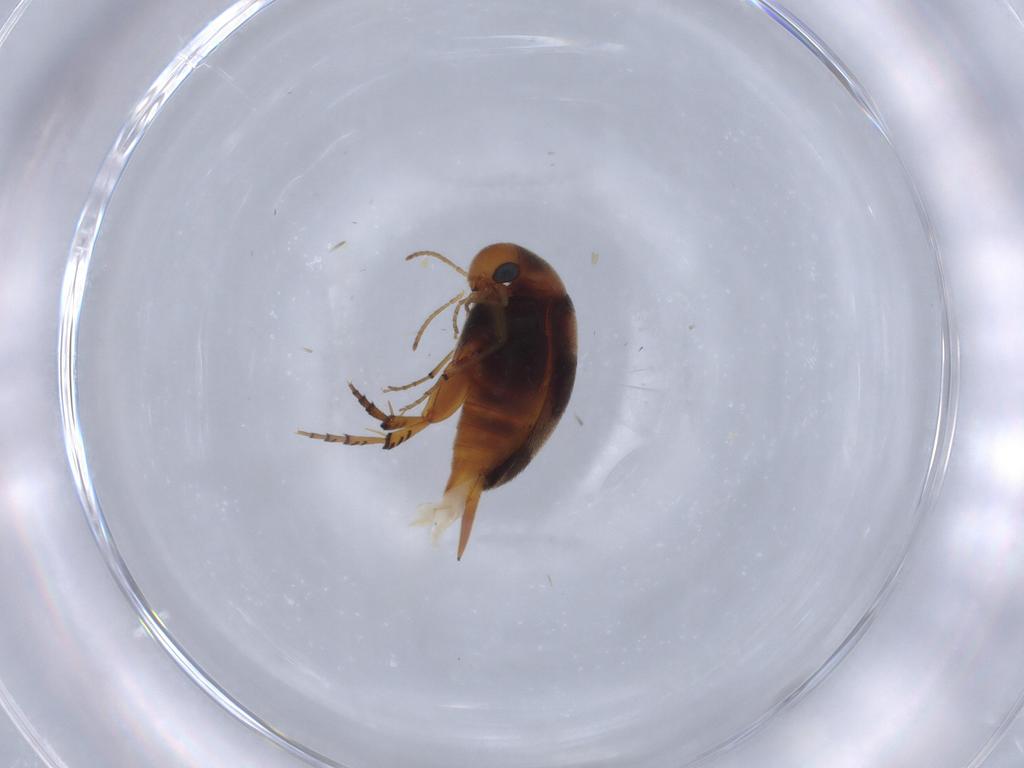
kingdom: Animalia
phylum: Arthropoda
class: Insecta
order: Coleoptera
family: Mordellidae
